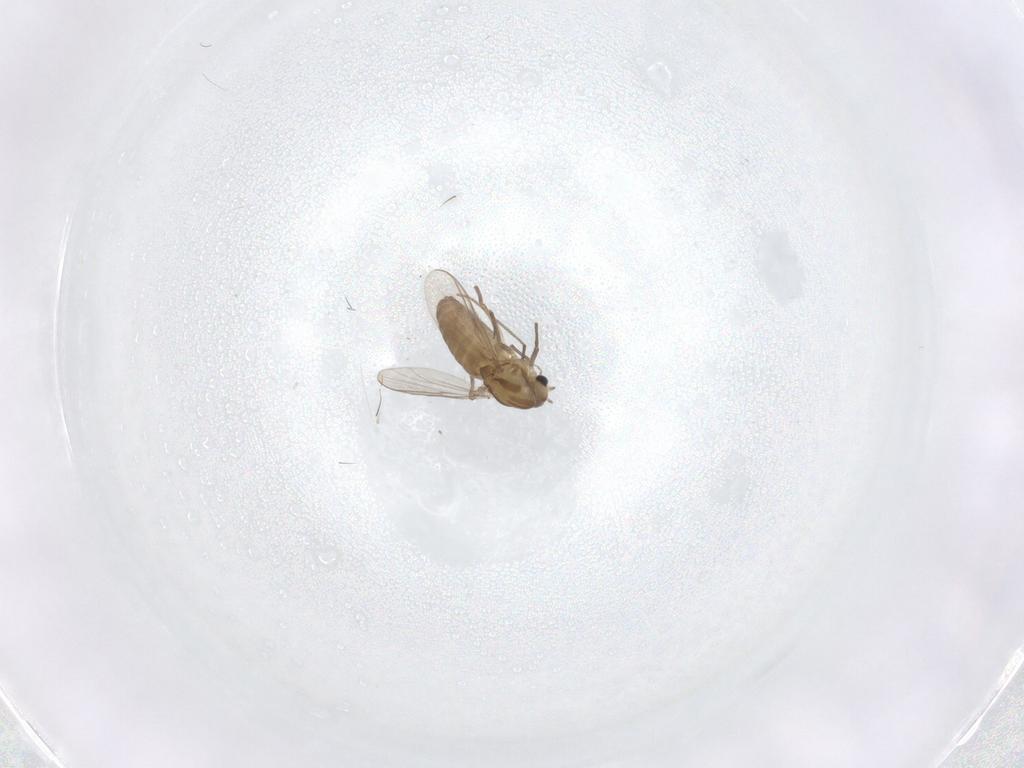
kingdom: Animalia
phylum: Arthropoda
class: Insecta
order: Diptera
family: Chironomidae
